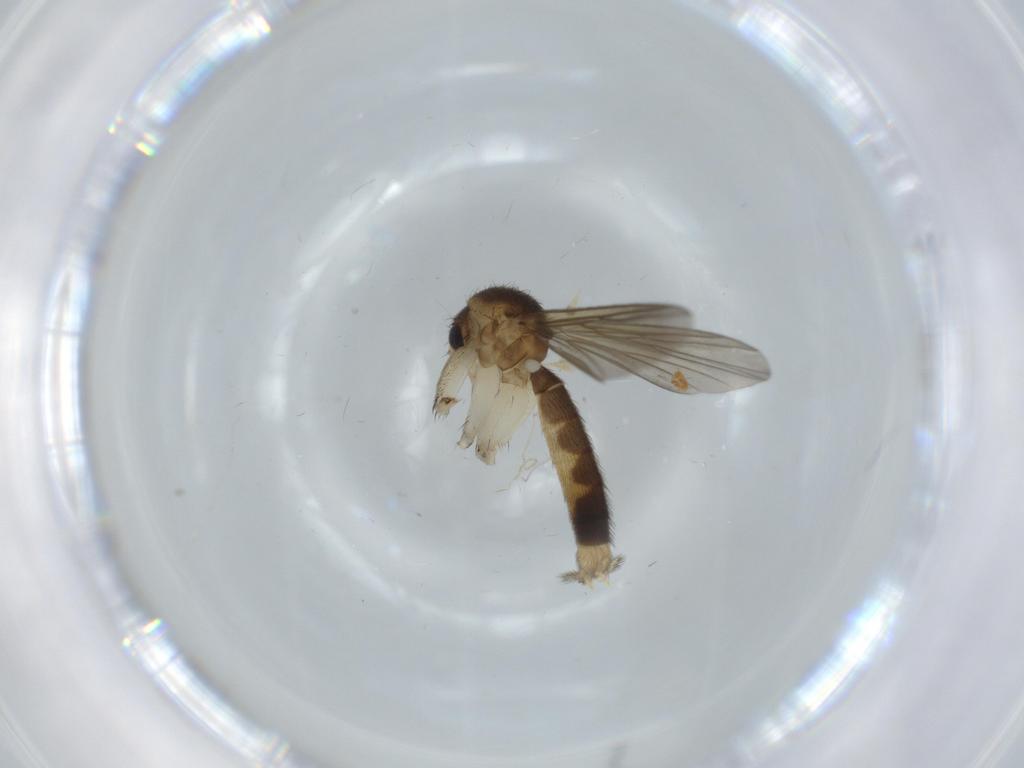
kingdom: Animalia
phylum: Arthropoda
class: Insecta
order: Diptera
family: Mycetophilidae
